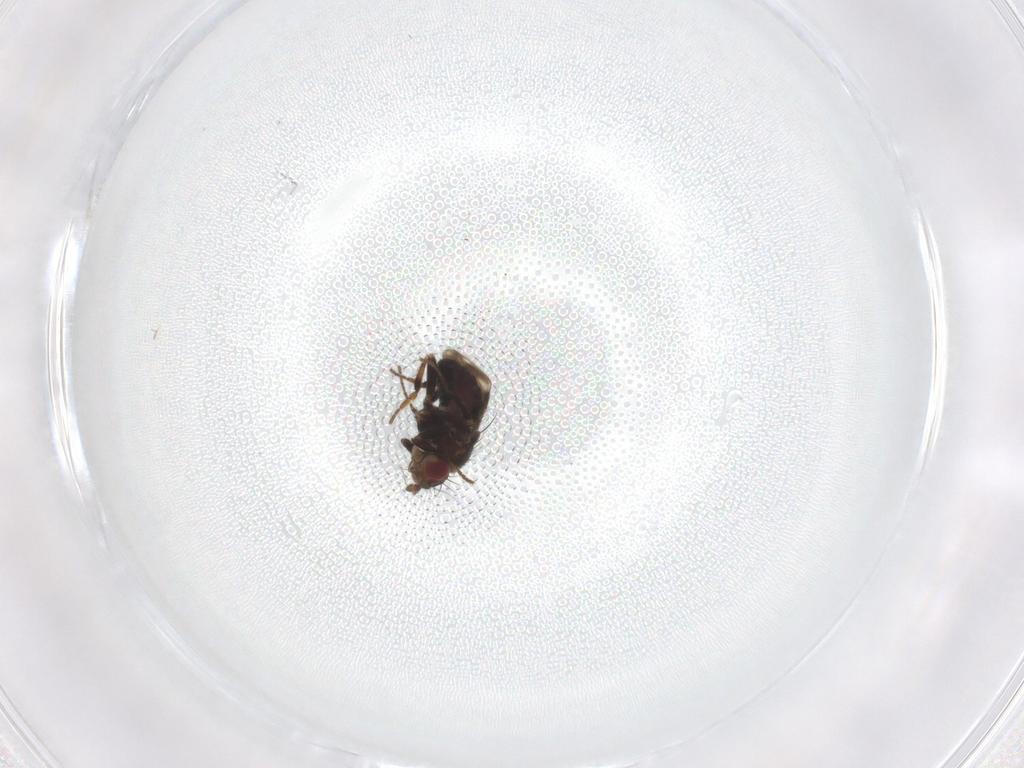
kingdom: Animalia
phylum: Arthropoda
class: Insecta
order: Diptera
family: Sphaeroceridae
